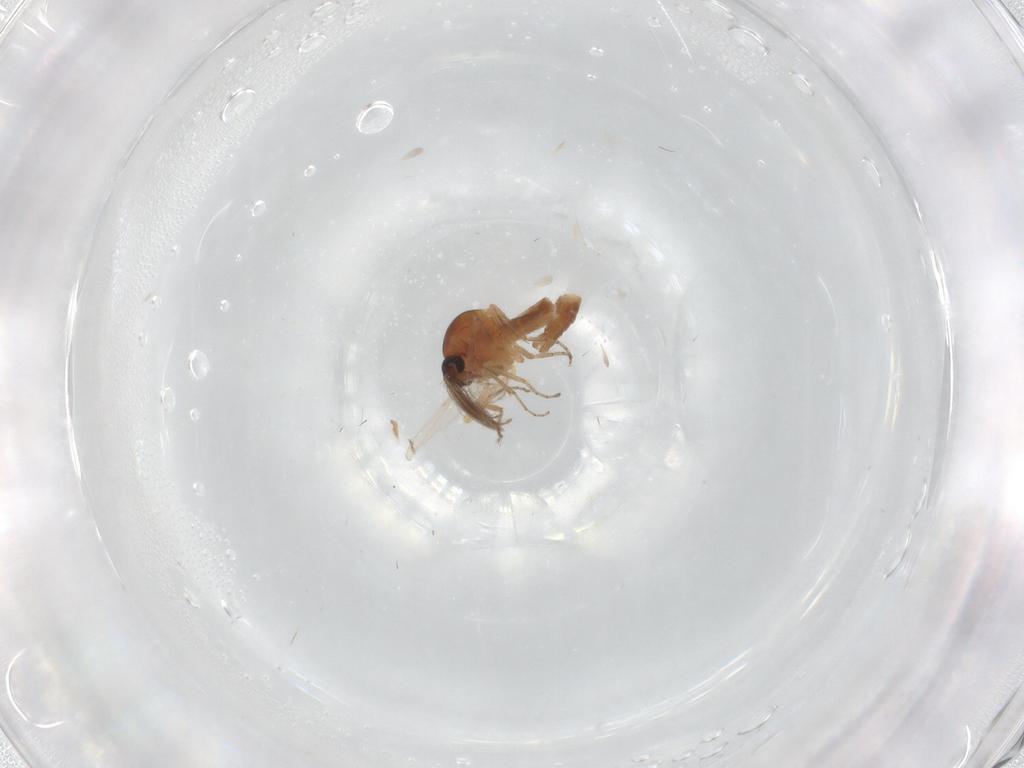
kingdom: Animalia
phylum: Arthropoda
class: Insecta
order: Diptera
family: Ceratopogonidae
